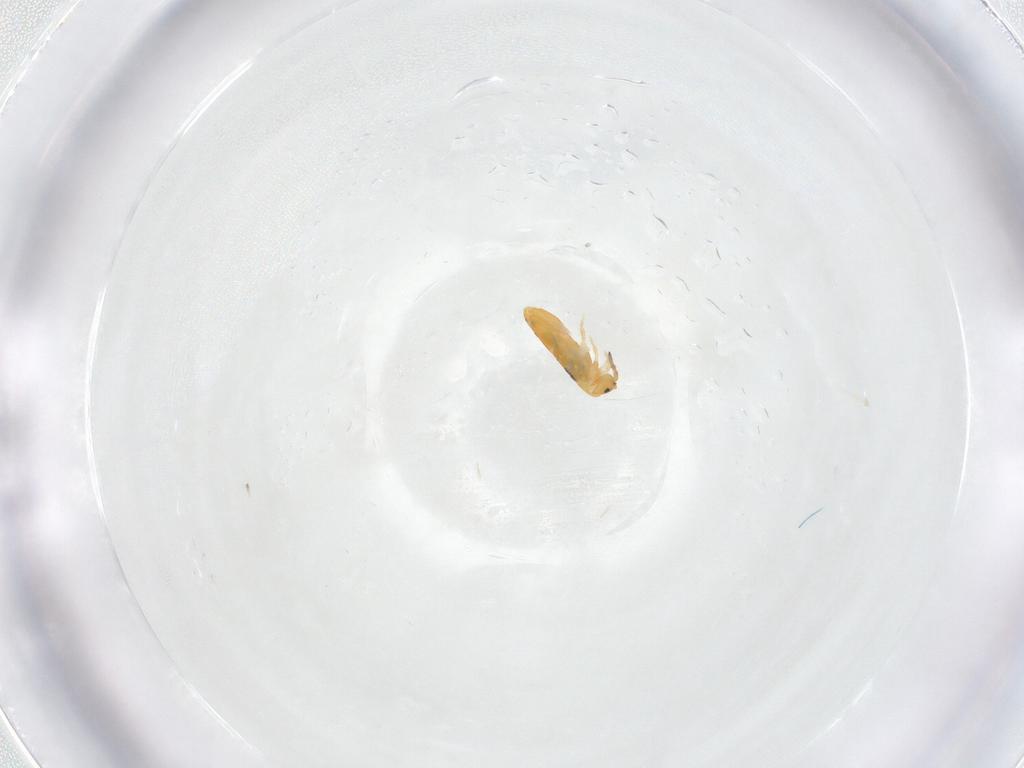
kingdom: Animalia
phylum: Arthropoda
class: Collembola
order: Entomobryomorpha
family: Entomobryidae
